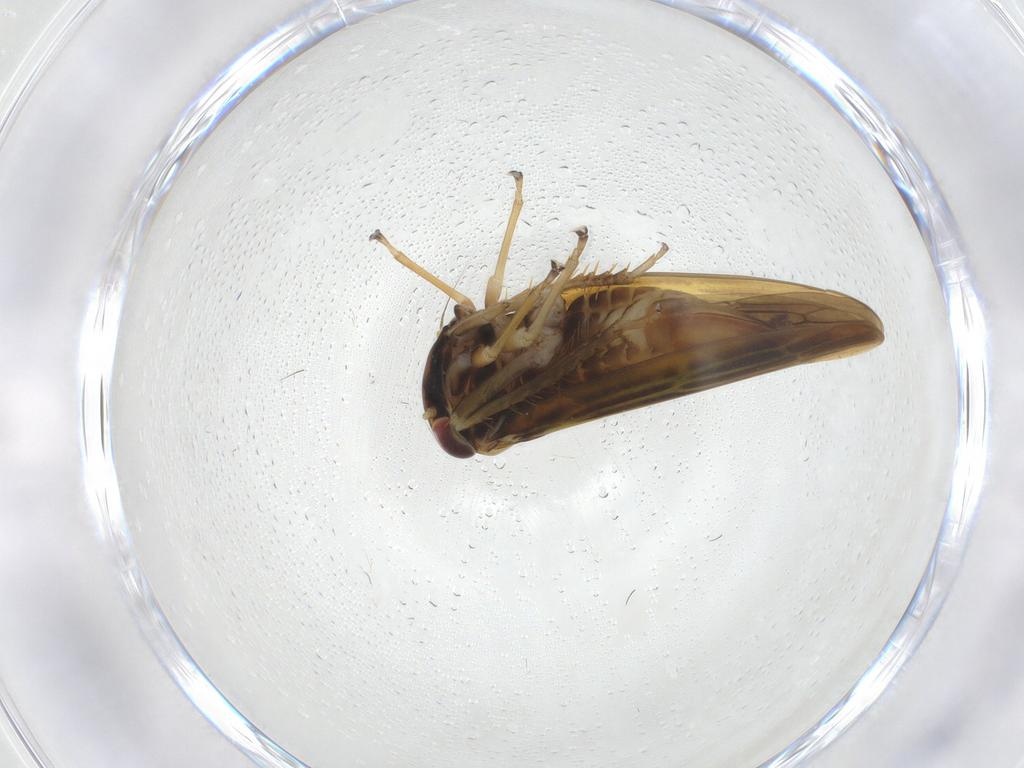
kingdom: Animalia
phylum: Arthropoda
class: Insecta
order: Hemiptera
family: Cicadellidae
